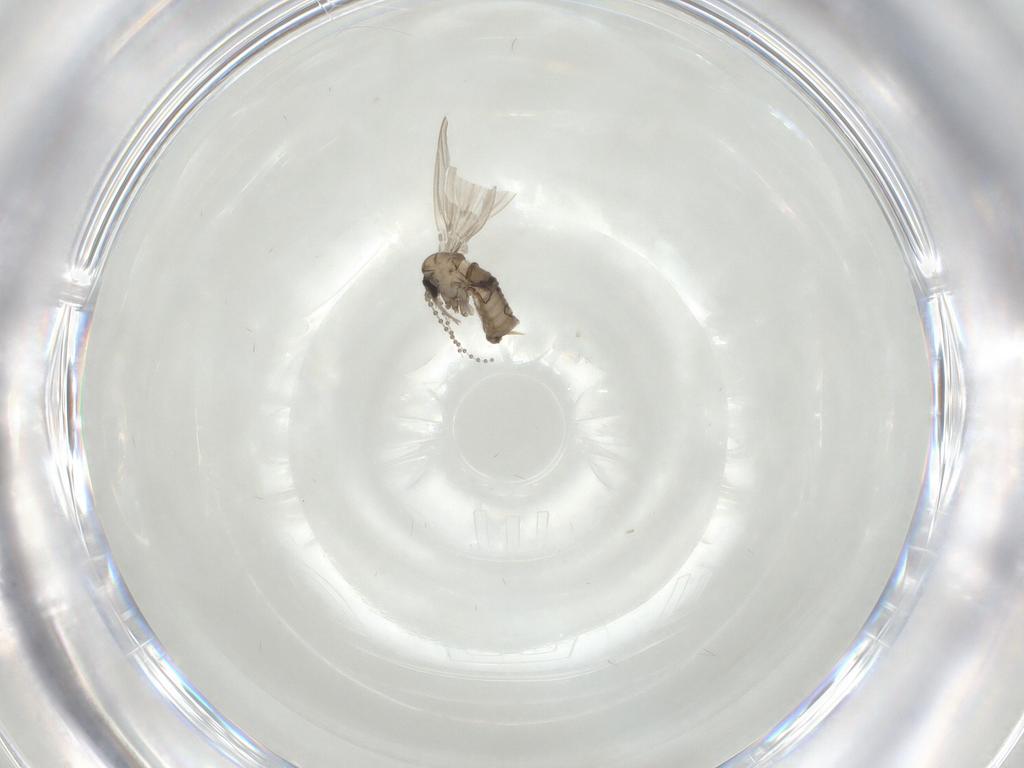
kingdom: Animalia
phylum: Arthropoda
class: Insecta
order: Diptera
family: Psychodidae
